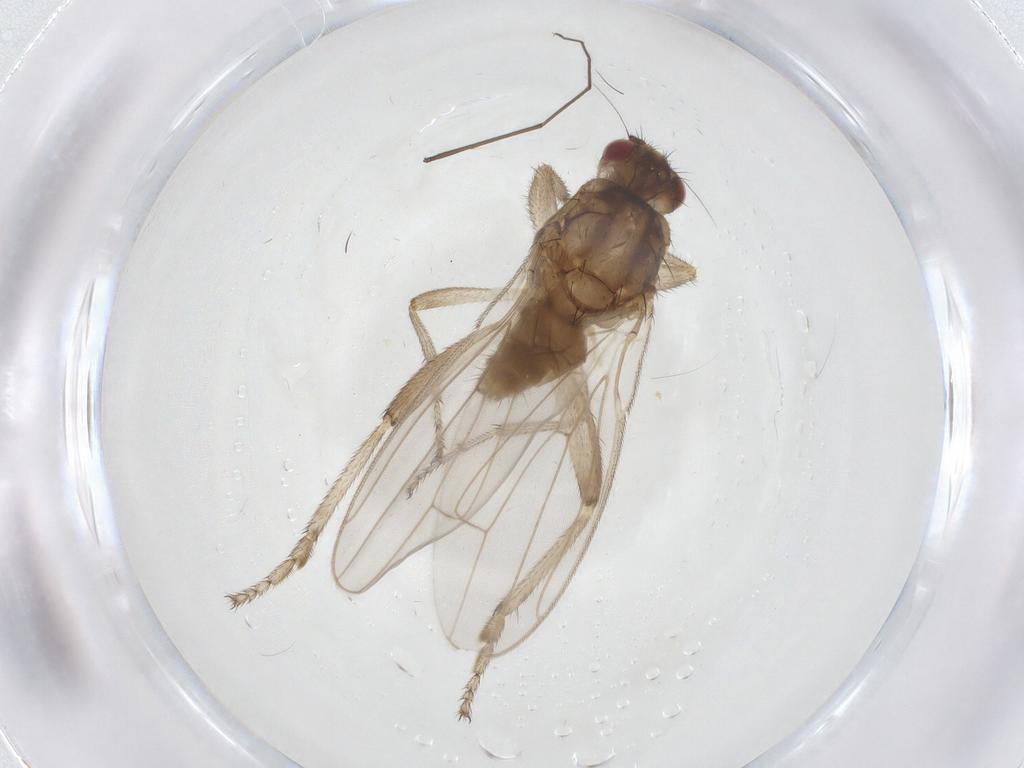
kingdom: Animalia
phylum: Arthropoda
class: Insecta
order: Diptera
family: Sphaeroceridae
